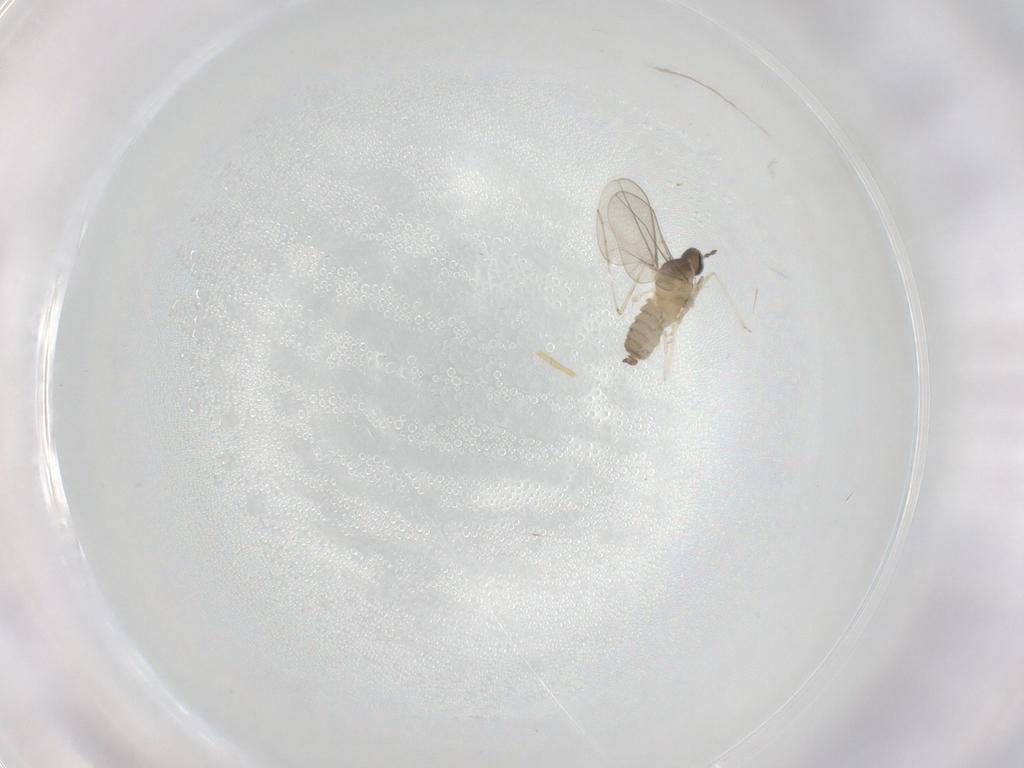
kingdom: Animalia
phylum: Arthropoda
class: Insecta
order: Diptera
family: Cecidomyiidae
